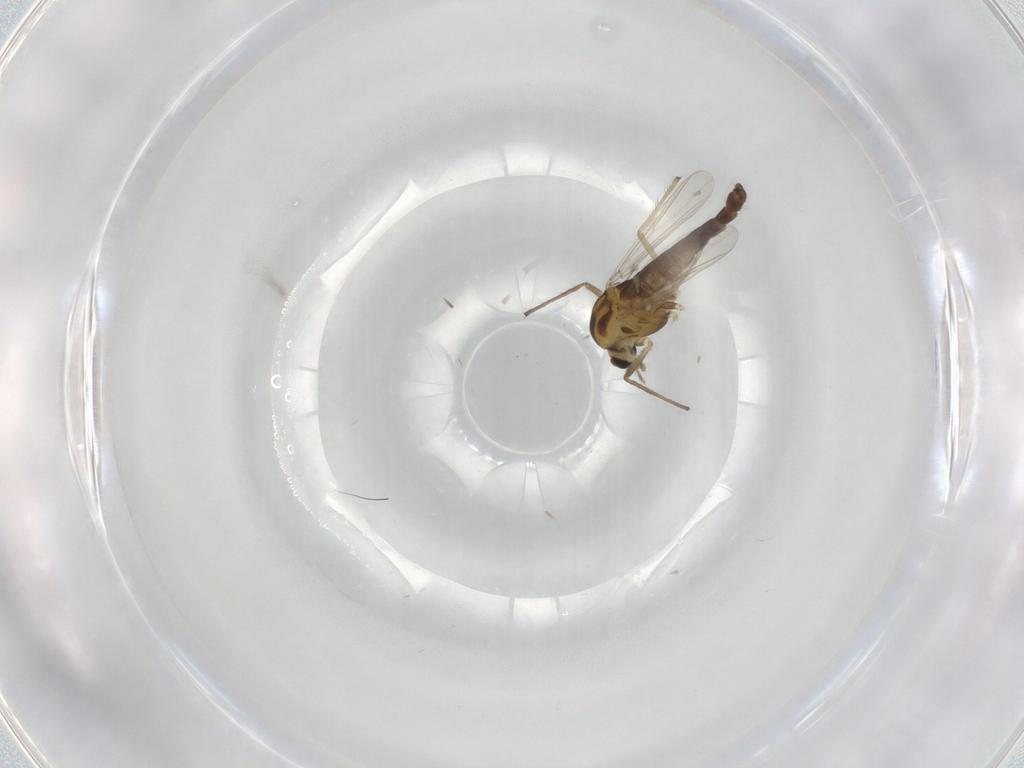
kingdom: Animalia
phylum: Arthropoda
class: Insecta
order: Diptera
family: Chironomidae
